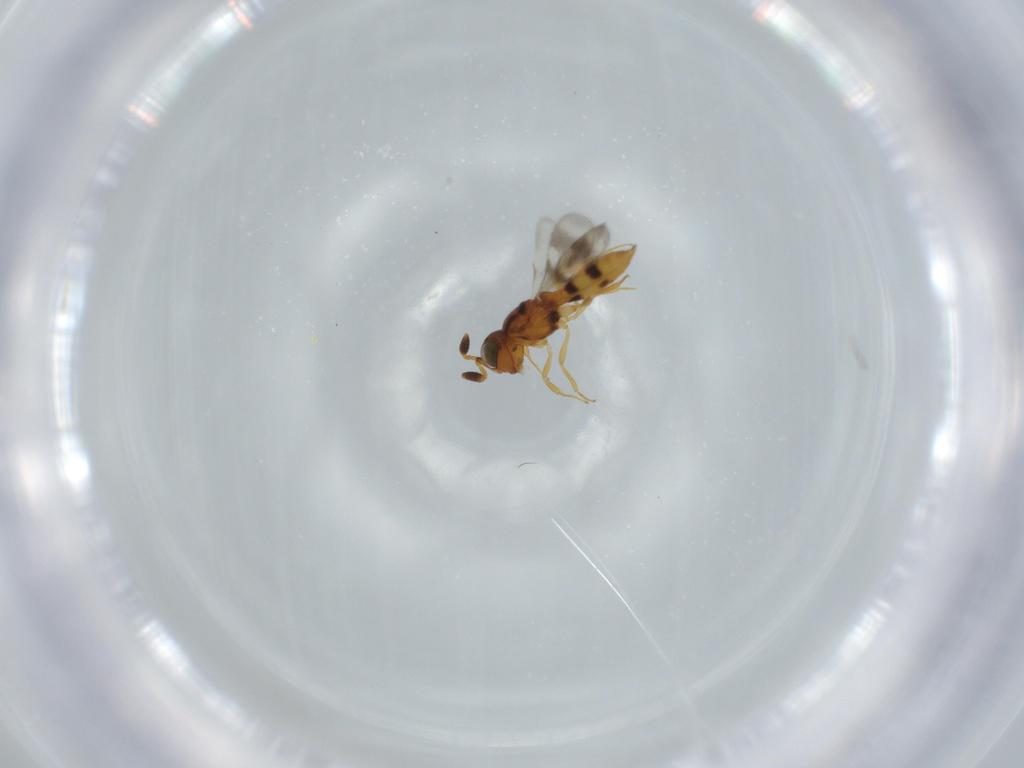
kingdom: Animalia
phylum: Arthropoda
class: Insecta
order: Hymenoptera
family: Scelionidae
